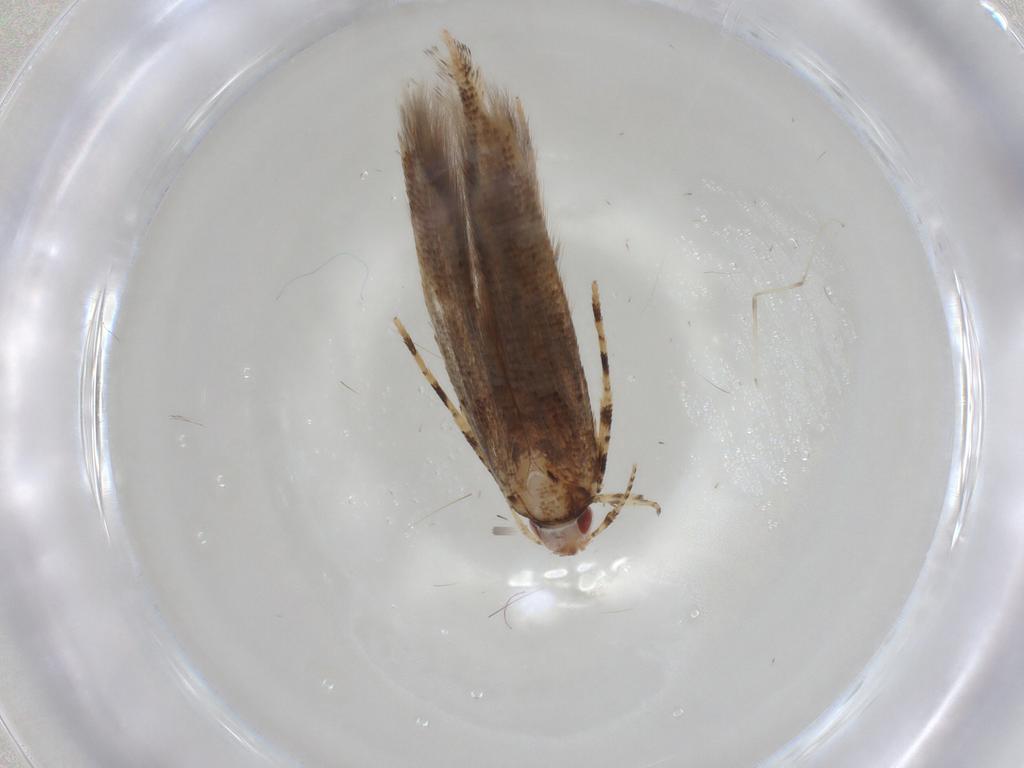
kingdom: Animalia
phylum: Arthropoda
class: Insecta
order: Lepidoptera
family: Cosmopterigidae
